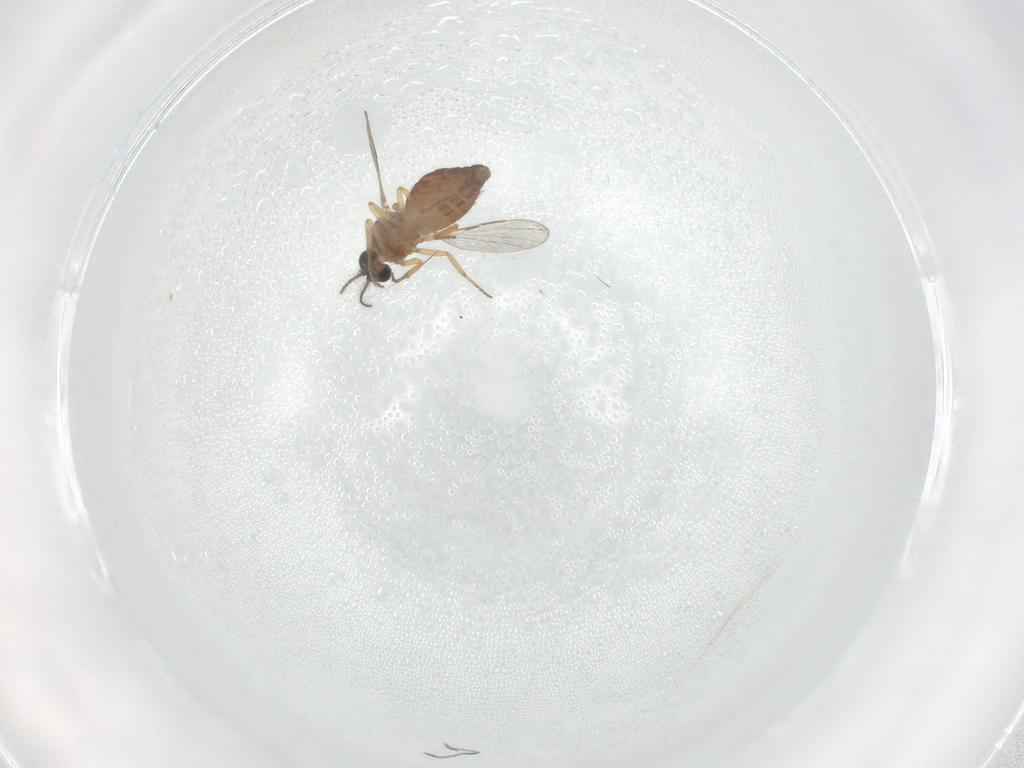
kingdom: Animalia
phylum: Arthropoda
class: Insecta
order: Diptera
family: Ceratopogonidae
